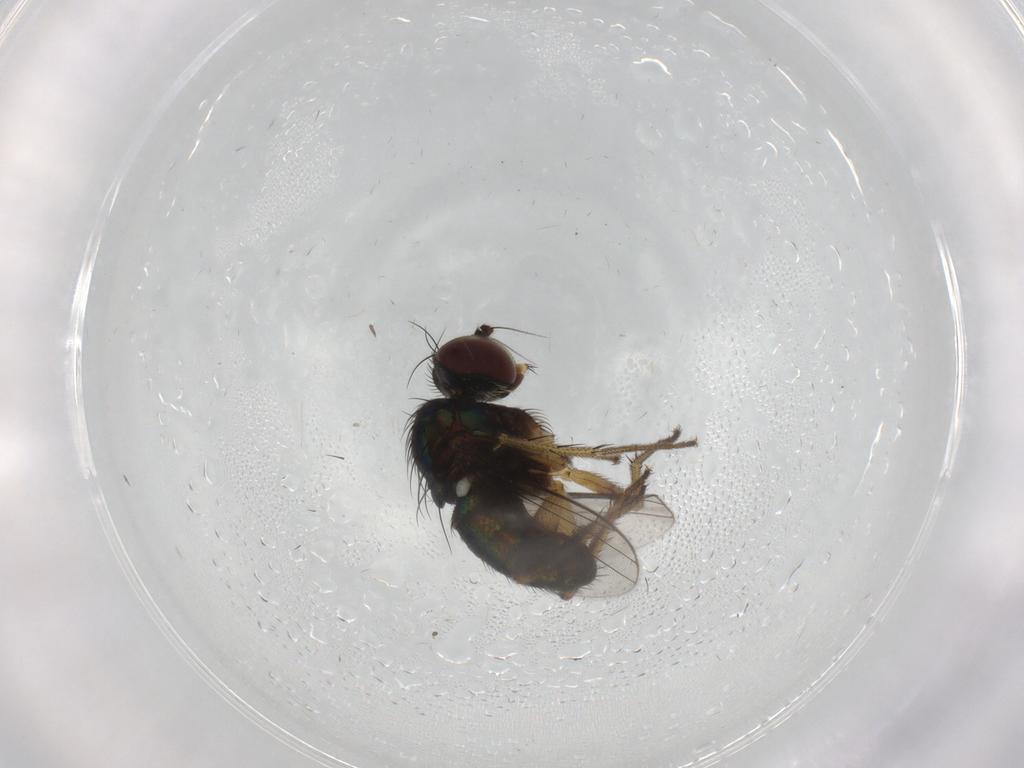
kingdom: Animalia
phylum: Arthropoda
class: Insecta
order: Diptera
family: Dolichopodidae
